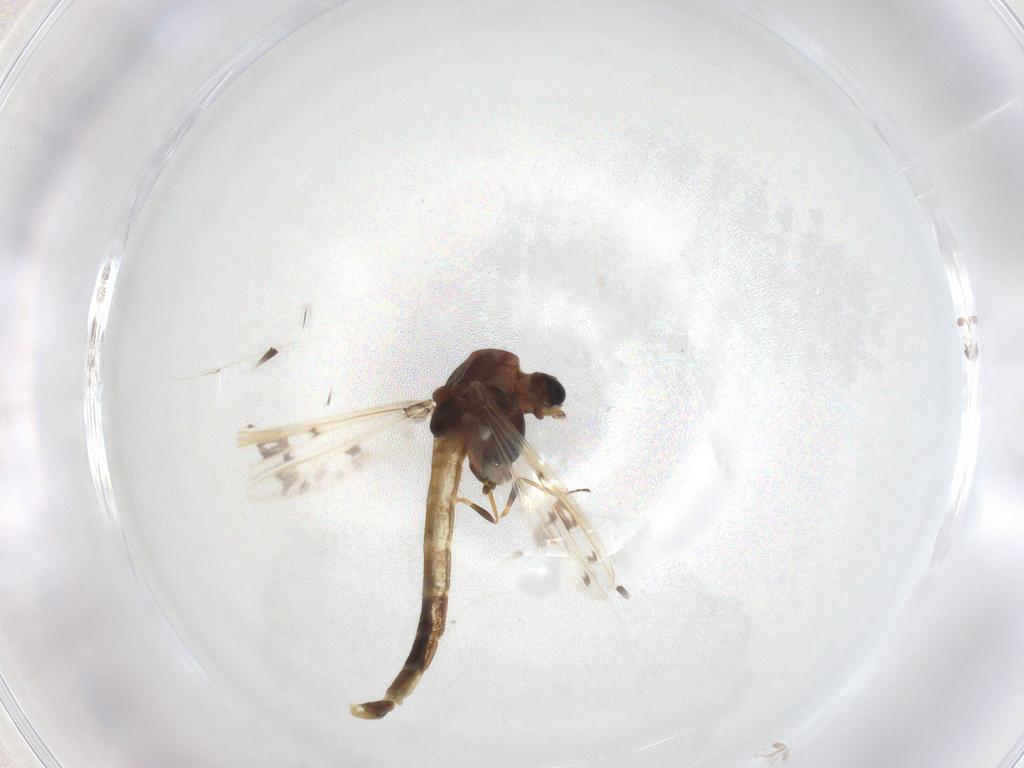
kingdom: Animalia
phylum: Arthropoda
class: Insecta
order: Diptera
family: Chironomidae
